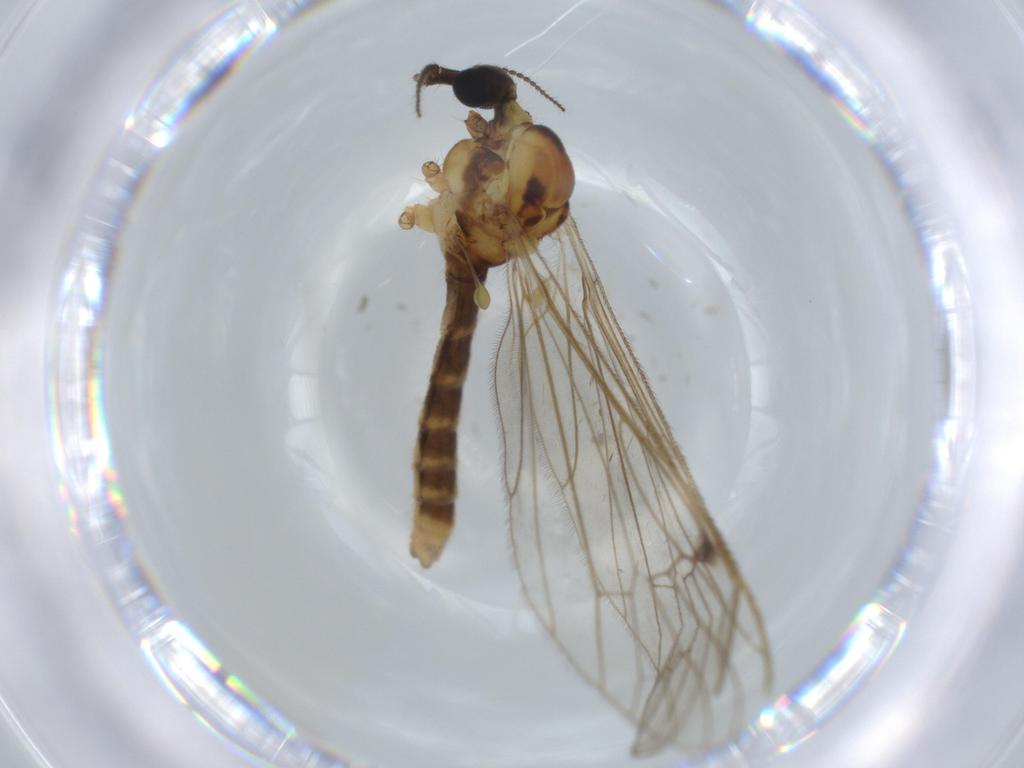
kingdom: Animalia
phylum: Arthropoda
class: Insecta
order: Diptera
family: Limoniidae
